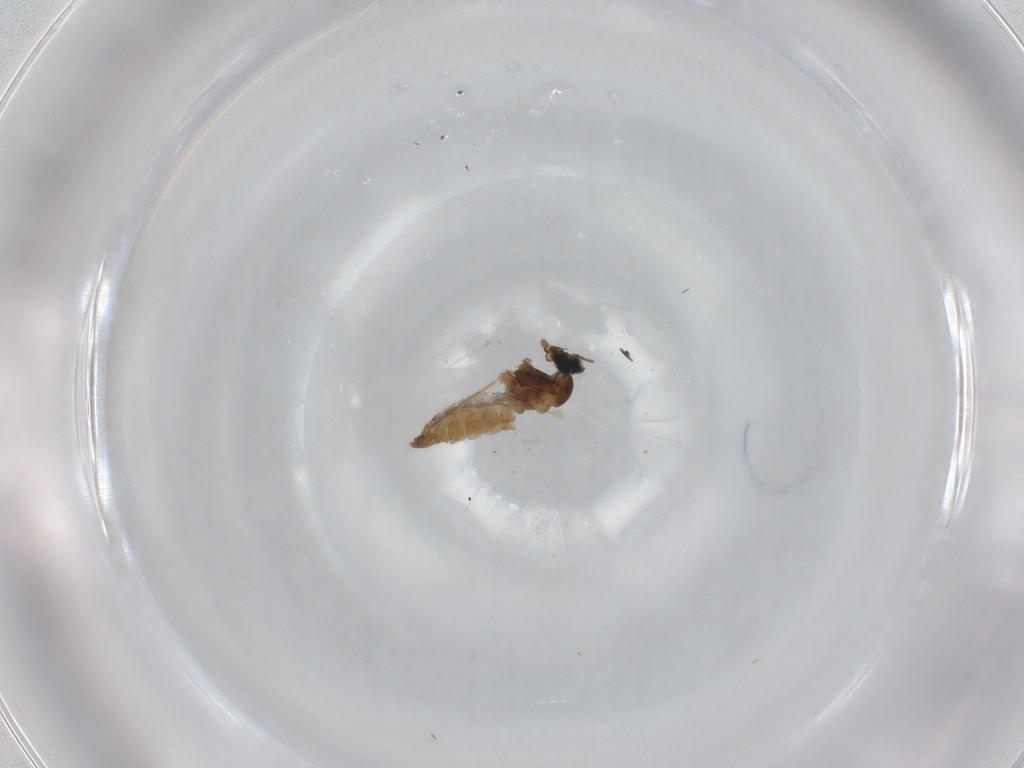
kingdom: Animalia
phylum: Arthropoda
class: Insecta
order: Diptera
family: Cecidomyiidae
